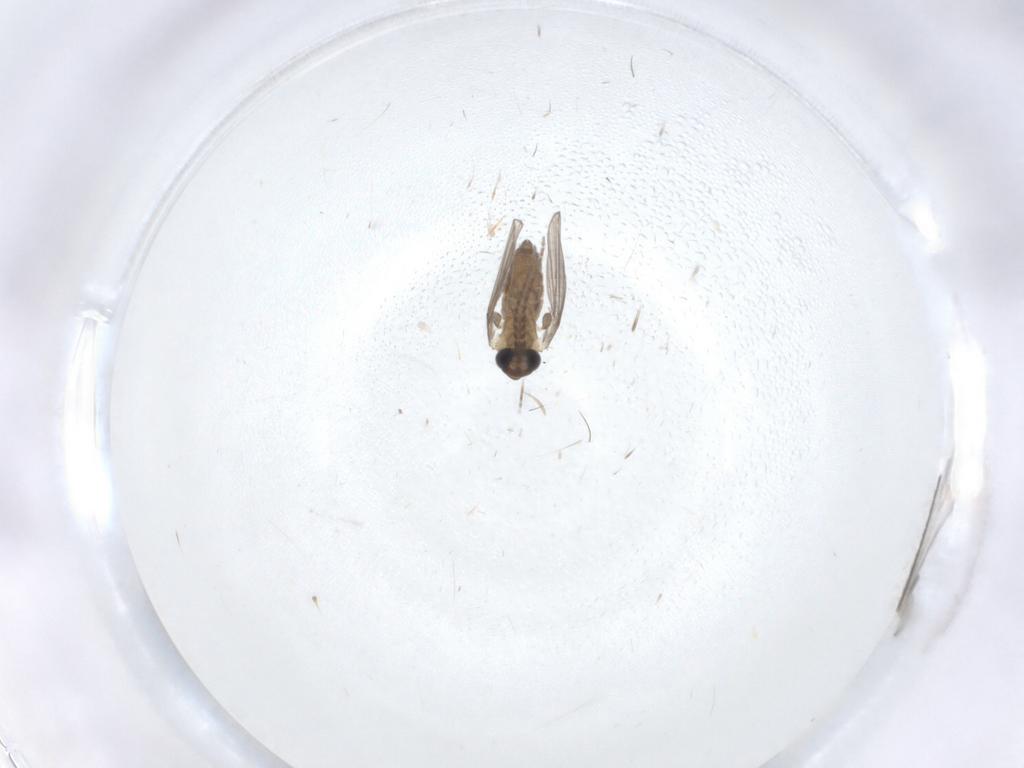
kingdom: Animalia
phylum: Arthropoda
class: Insecta
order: Diptera
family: Sciaridae
